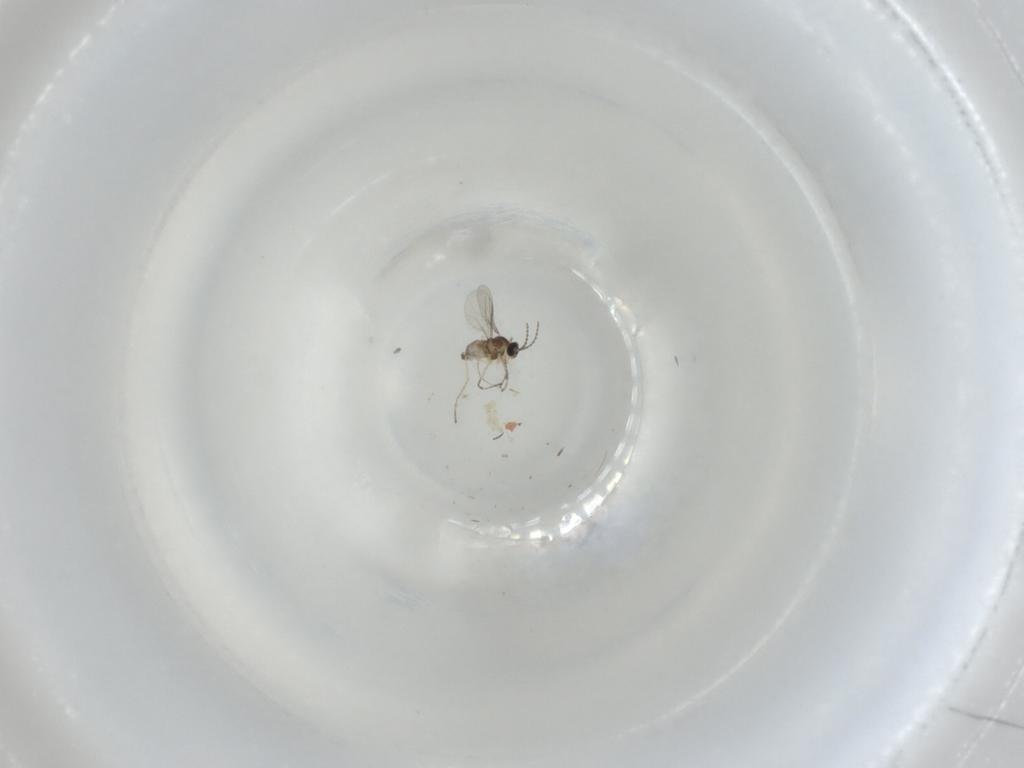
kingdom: Animalia
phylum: Arthropoda
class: Insecta
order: Diptera
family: Cecidomyiidae
